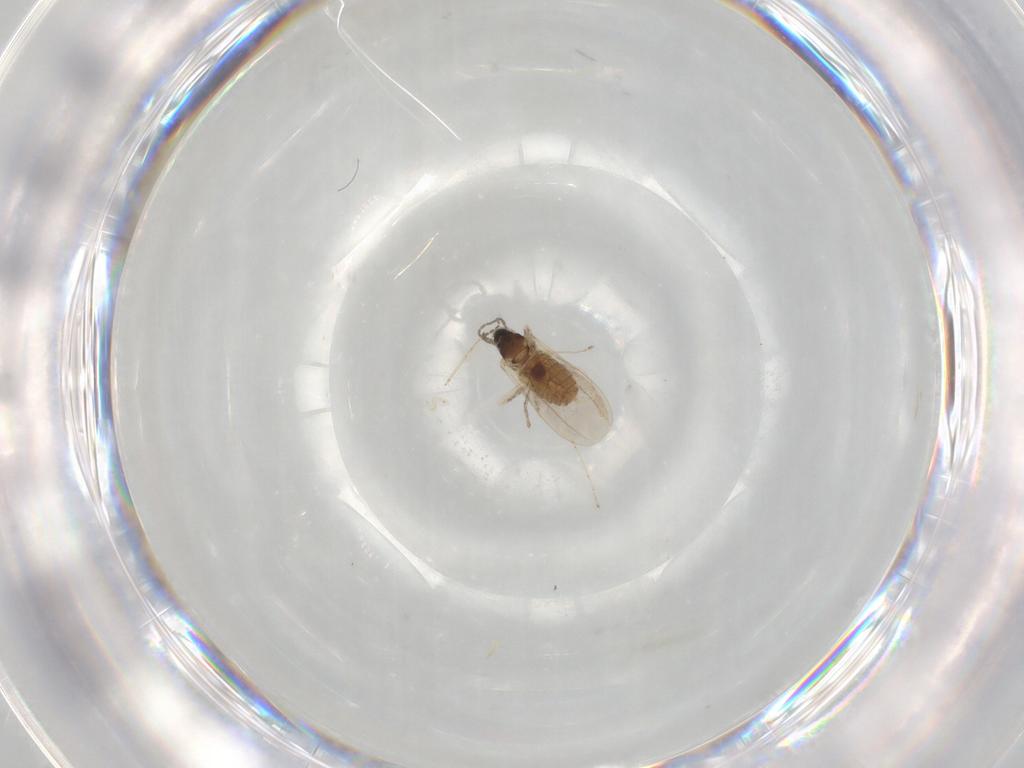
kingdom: Animalia
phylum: Arthropoda
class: Insecta
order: Diptera
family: Cecidomyiidae
